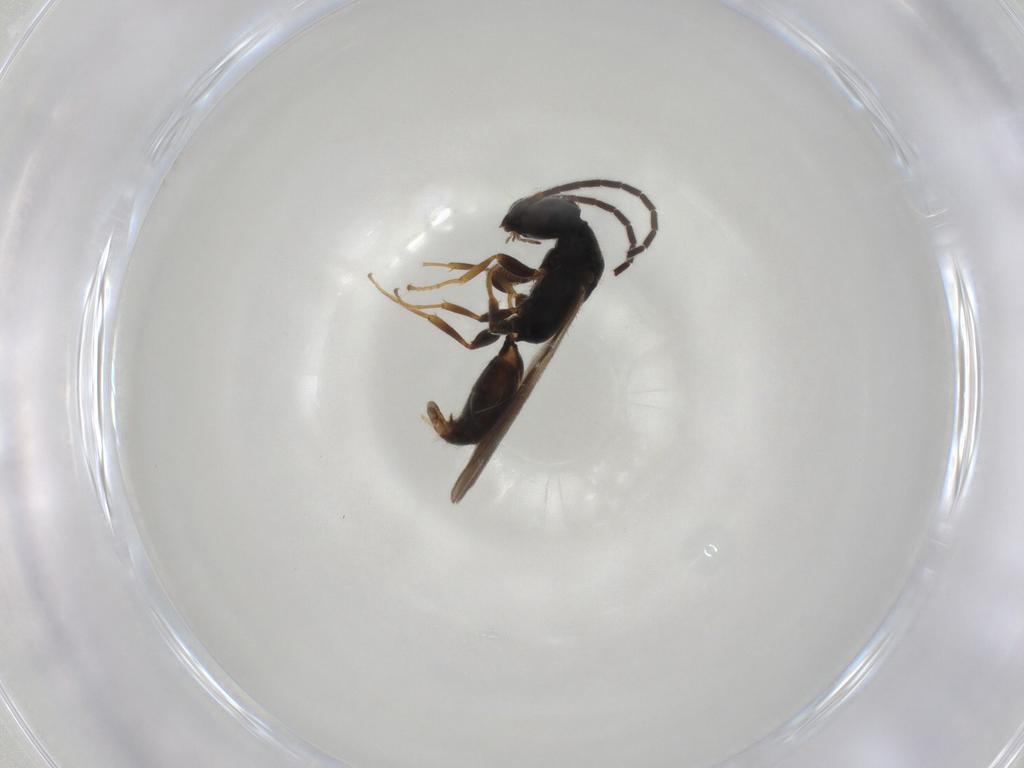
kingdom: Animalia
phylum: Arthropoda
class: Insecta
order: Hymenoptera
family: Bethylidae
